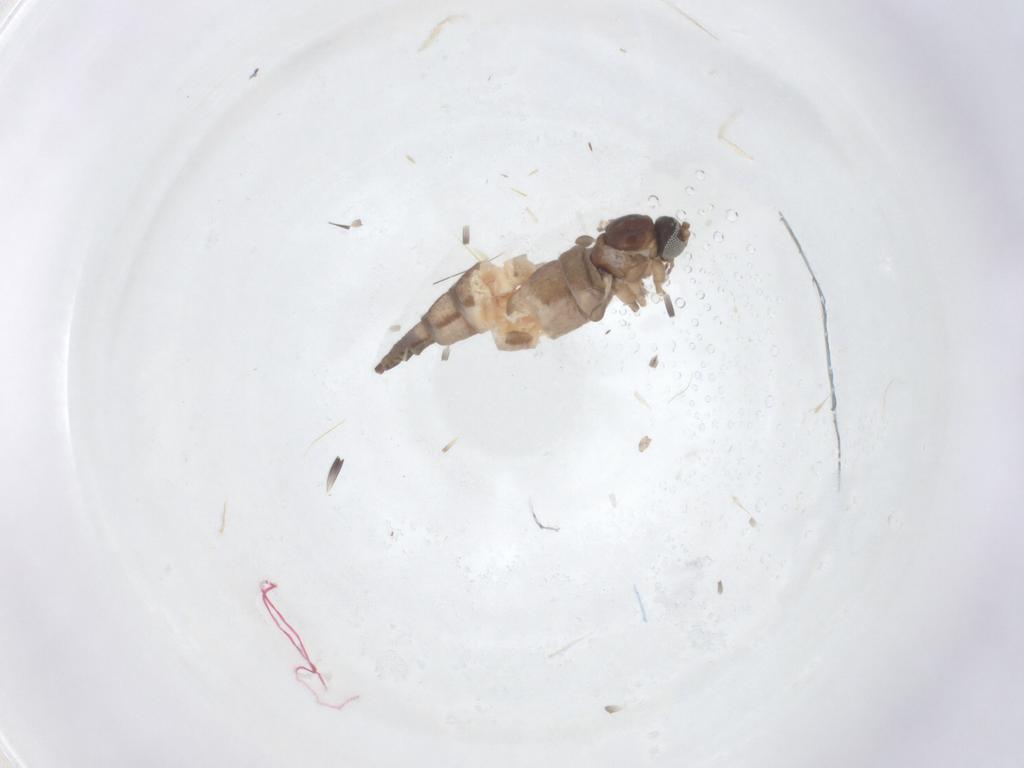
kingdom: Animalia
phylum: Arthropoda
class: Insecta
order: Diptera
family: Sciaridae
